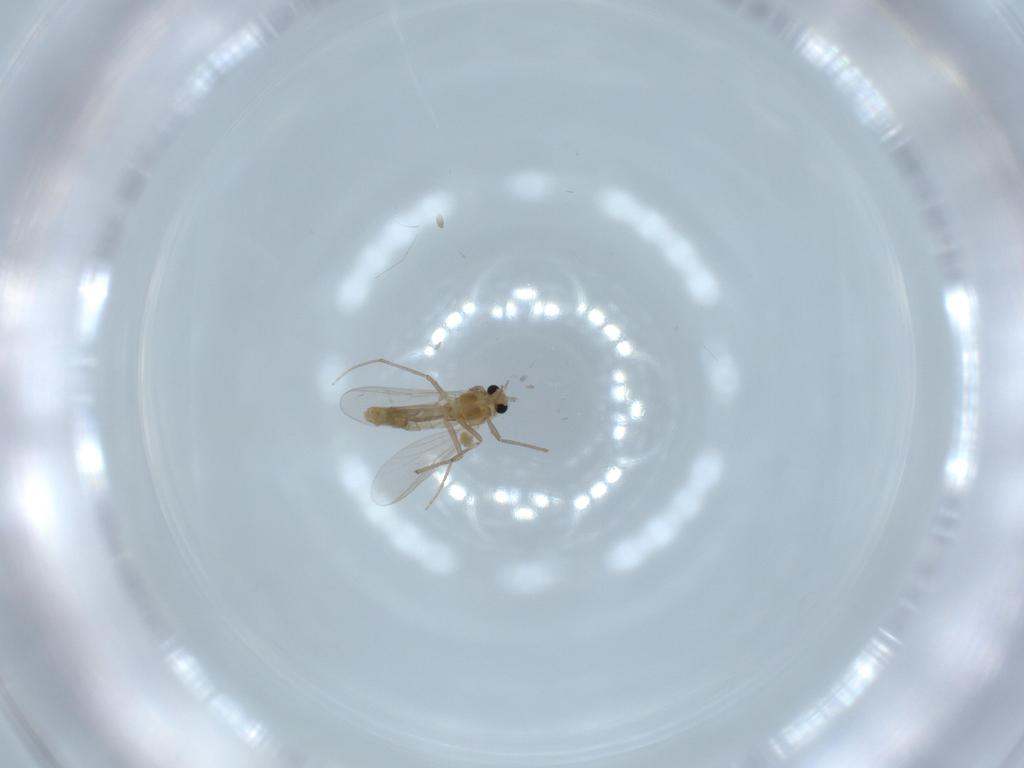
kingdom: Animalia
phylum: Arthropoda
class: Insecta
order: Diptera
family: Chironomidae
